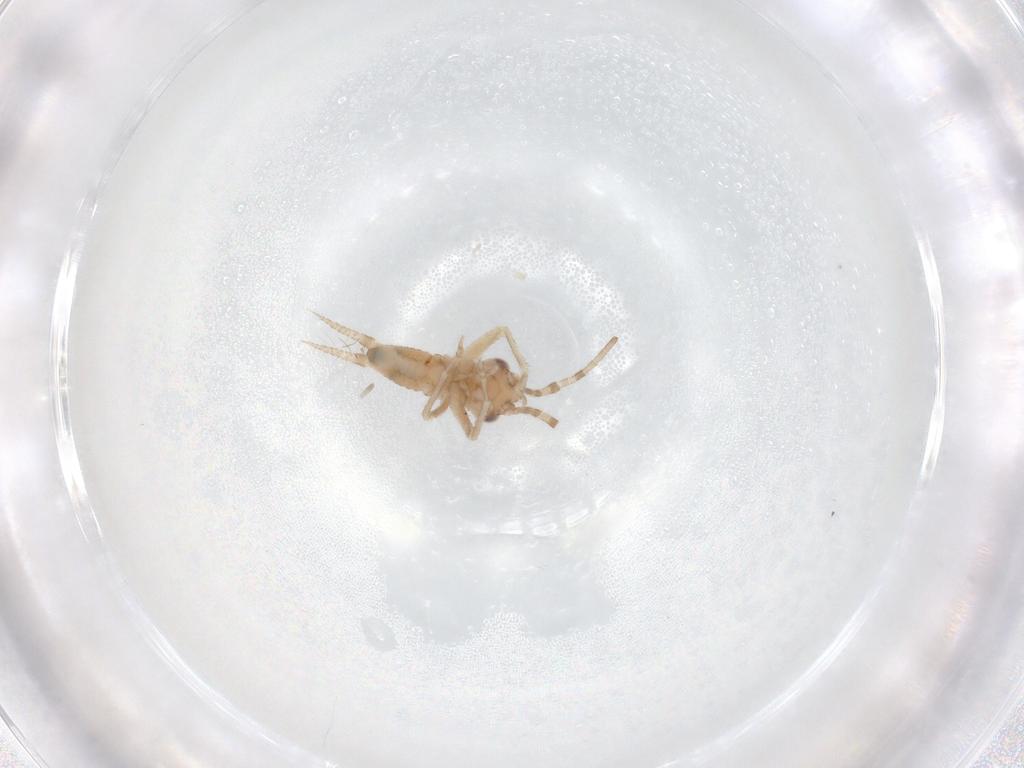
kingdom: Animalia
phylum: Arthropoda
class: Insecta
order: Orthoptera
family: Trigonidiidae
